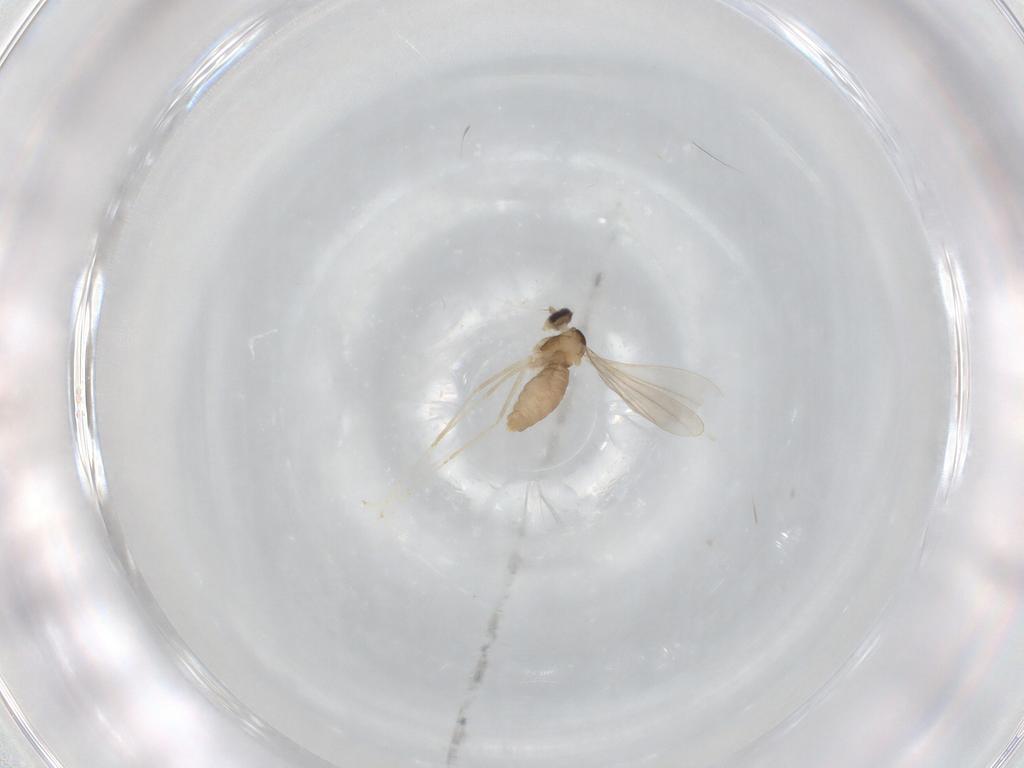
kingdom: Animalia
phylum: Arthropoda
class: Insecta
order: Diptera
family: Cecidomyiidae
